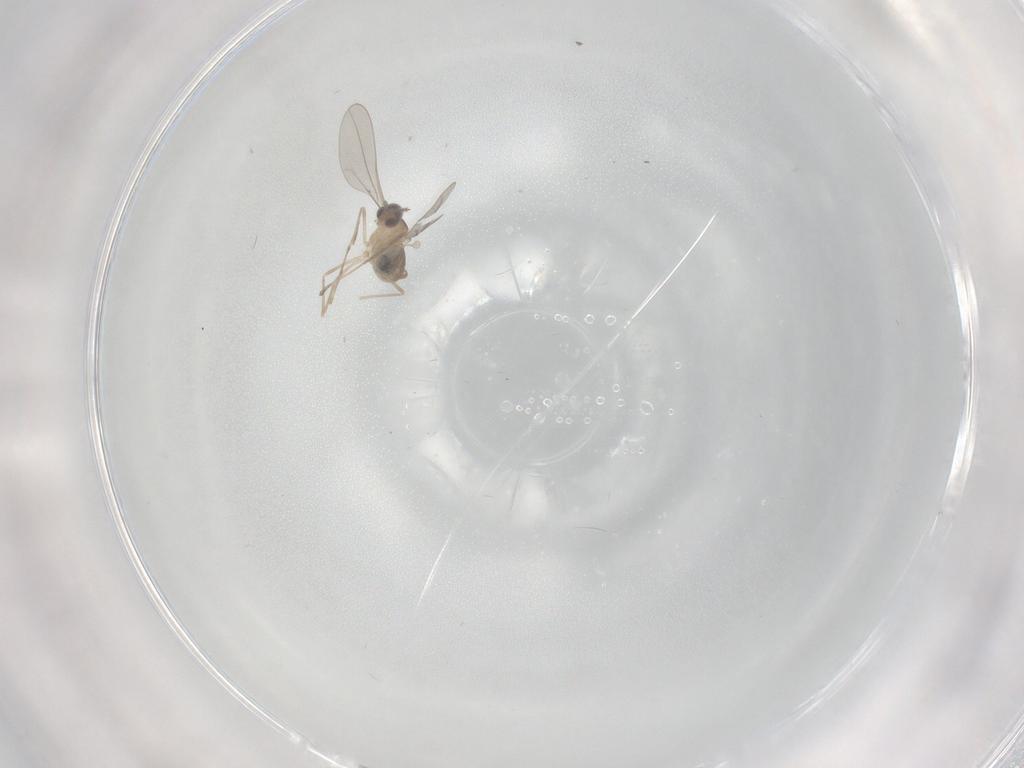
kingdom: Animalia
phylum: Arthropoda
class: Insecta
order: Diptera
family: Cecidomyiidae
